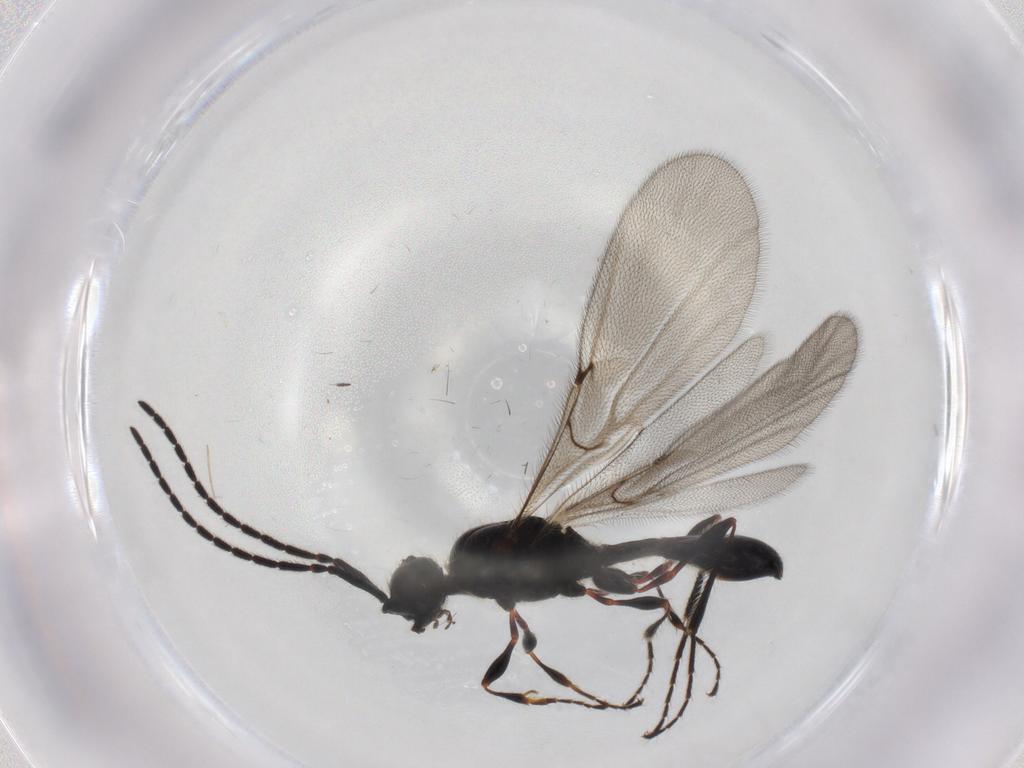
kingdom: Animalia
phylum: Arthropoda
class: Insecta
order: Hymenoptera
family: Diapriidae
